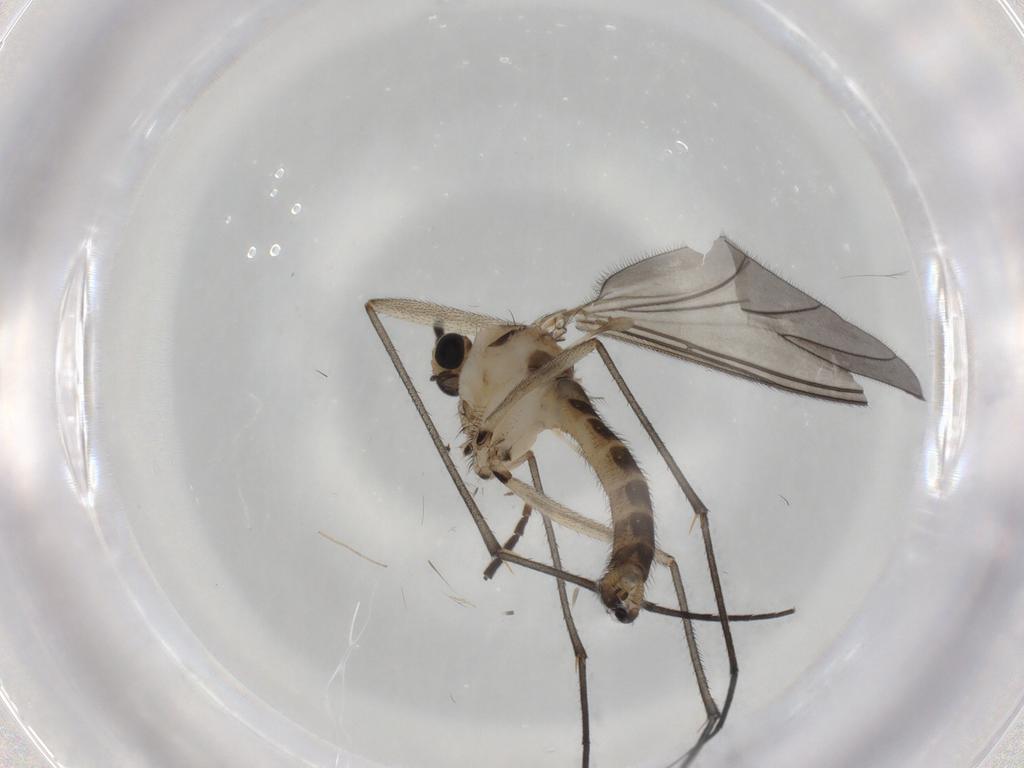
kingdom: Animalia
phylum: Arthropoda
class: Insecta
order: Diptera
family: Sciaridae
